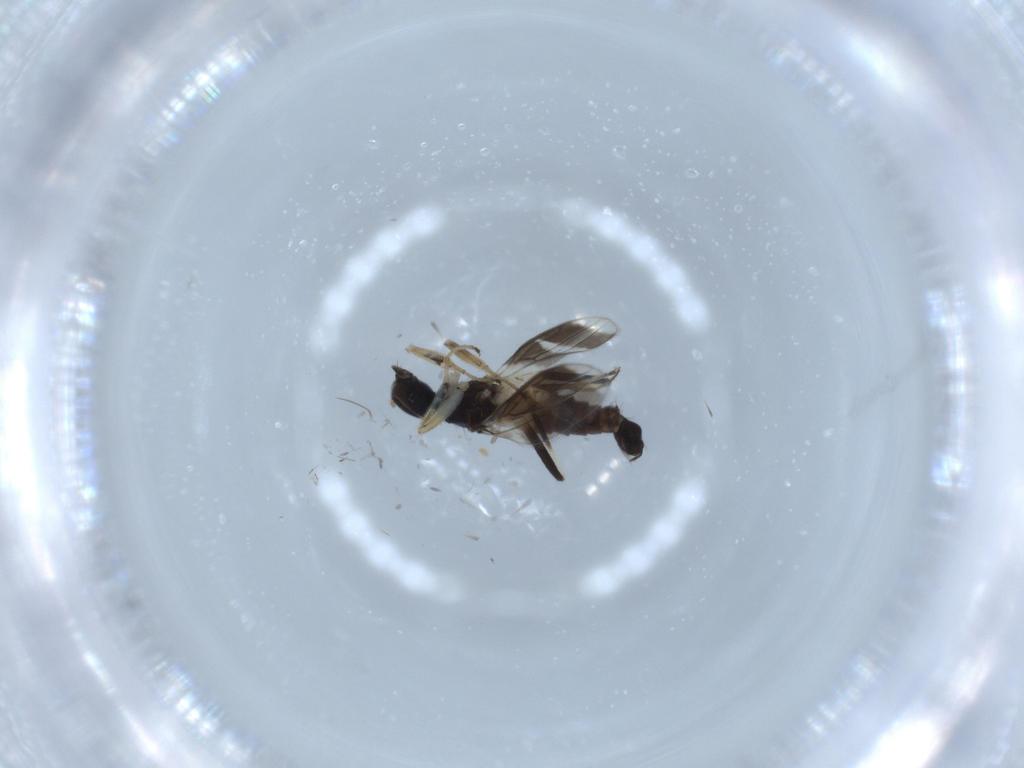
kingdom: Animalia
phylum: Arthropoda
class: Insecta
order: Diptera
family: Hybotidae
